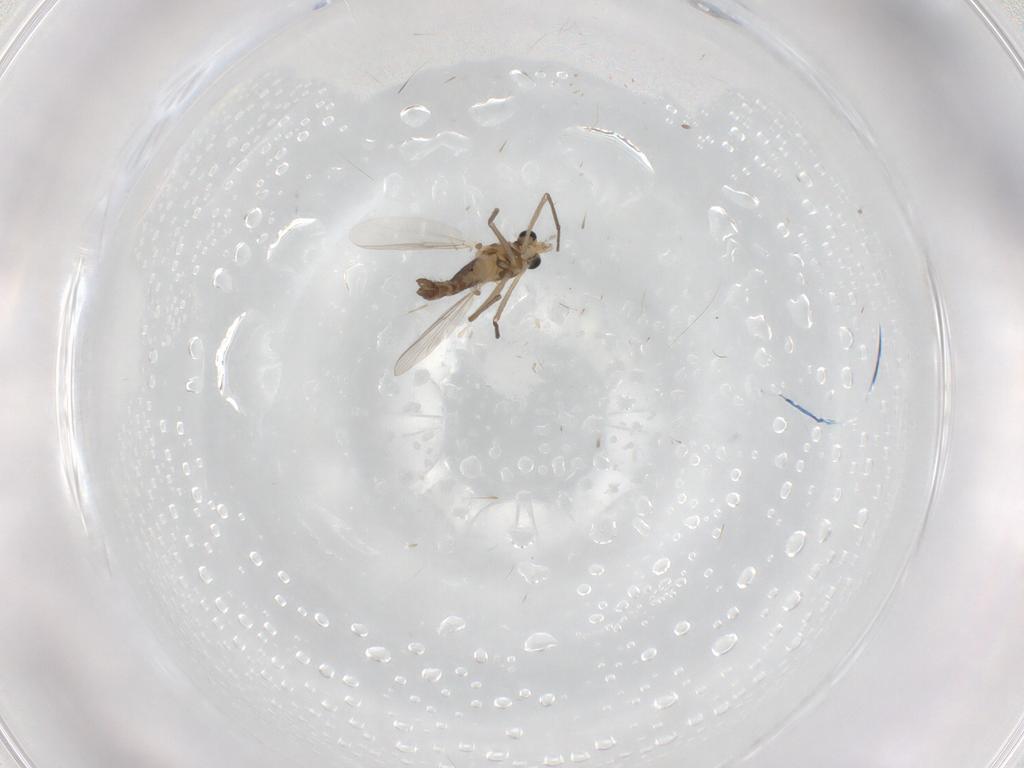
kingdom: Animalia
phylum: Arthropoda
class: Insecta
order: Diptera
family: Chironomidae
